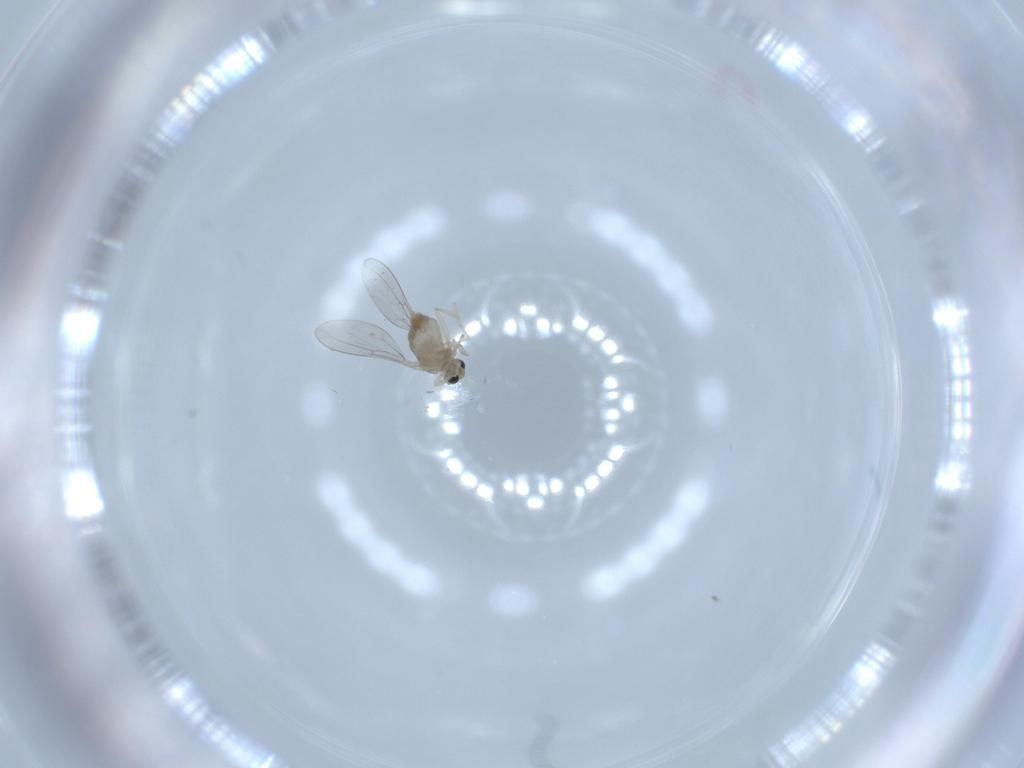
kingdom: Animalia
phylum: Arthropoda
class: Insecta
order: Diptera
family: Cecidomyiidae
